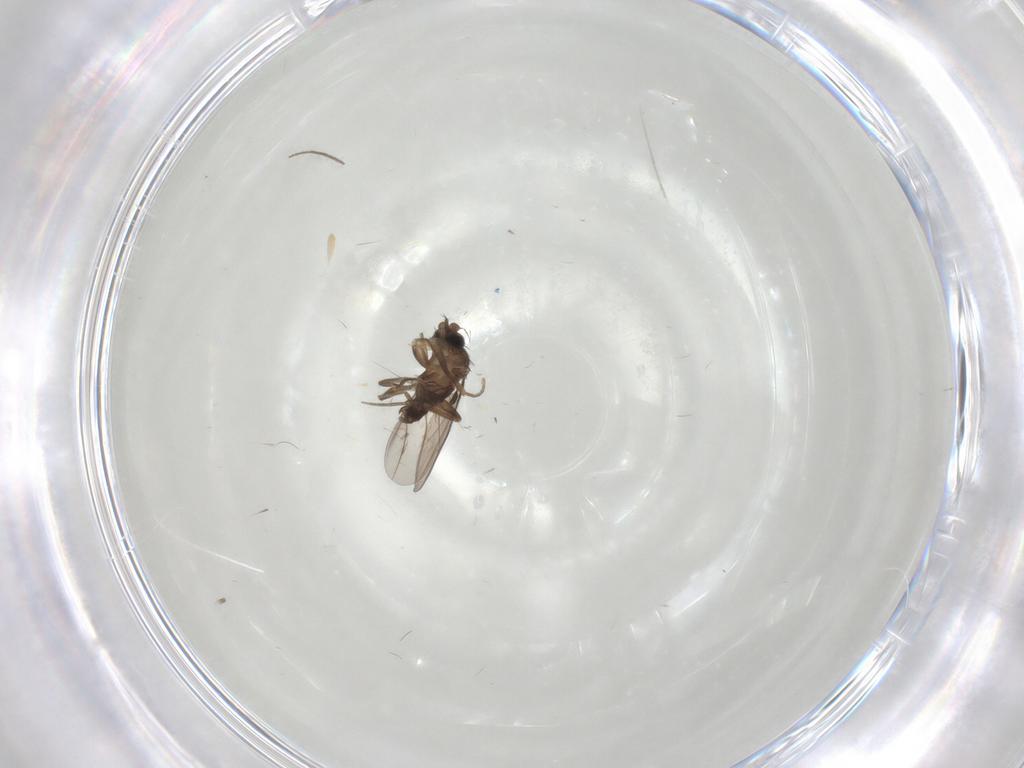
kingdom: Animalia
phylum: Arthropoda
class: Insecta
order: Diptera
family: Phoridae
